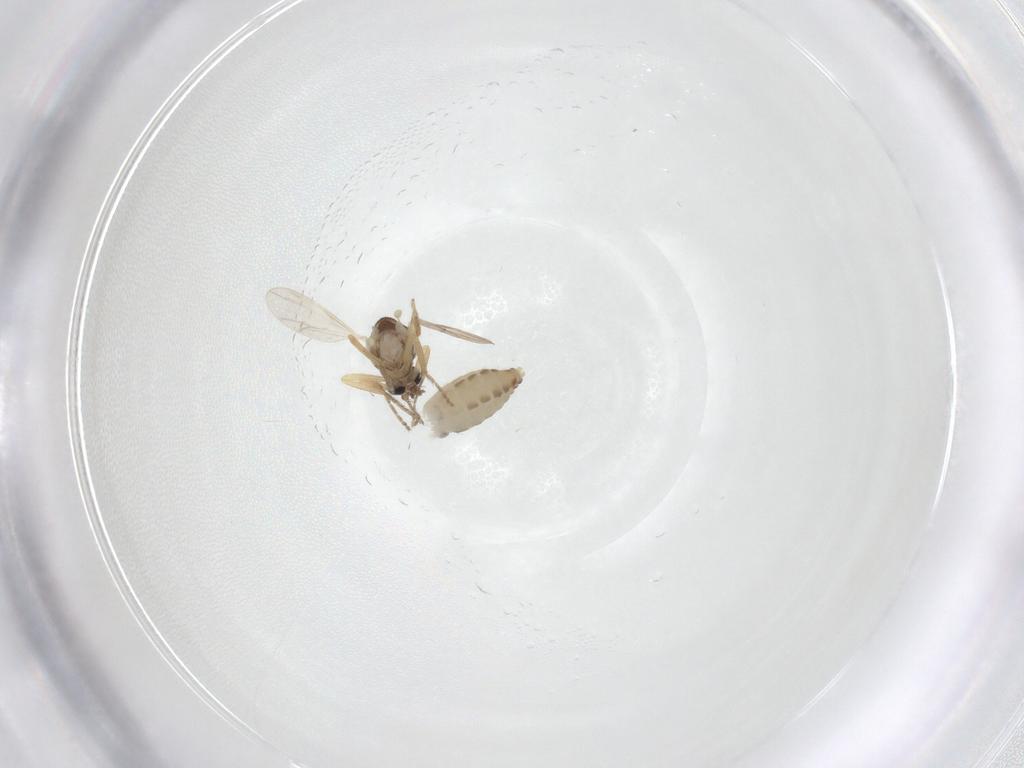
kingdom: Animalia
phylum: Arthropoda
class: Insecta
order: Diptera
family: Ceratopogonidae
